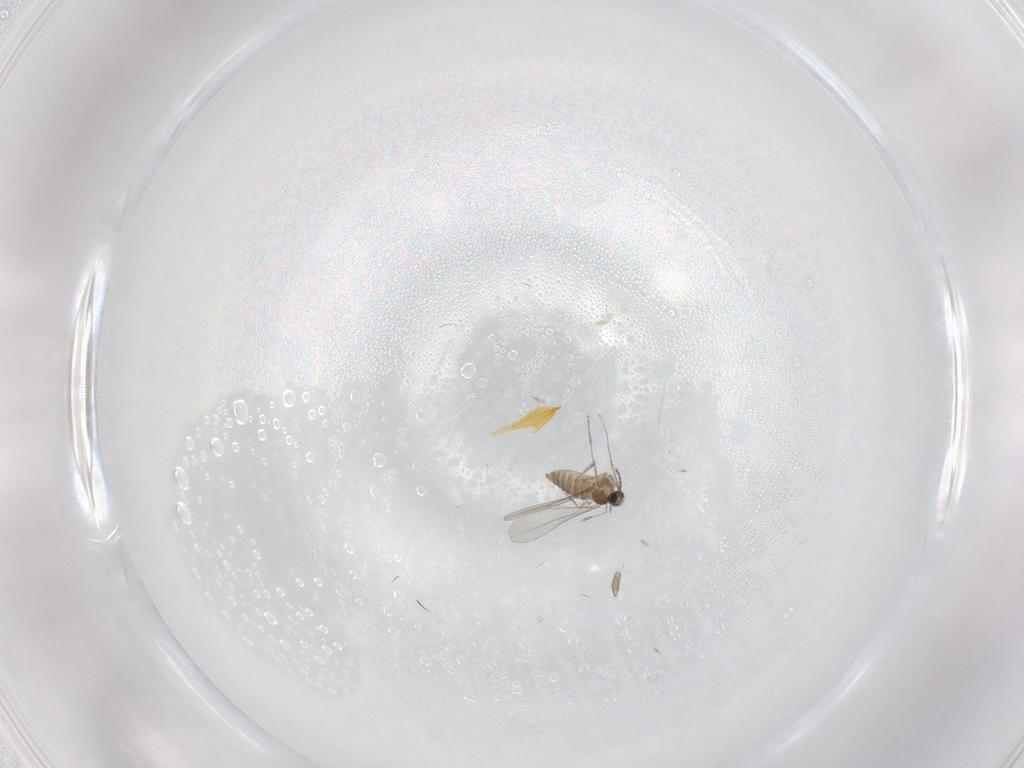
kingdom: Animalia
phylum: Arthropoda
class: Insecta
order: Diptera
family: Cecidomyiidae
